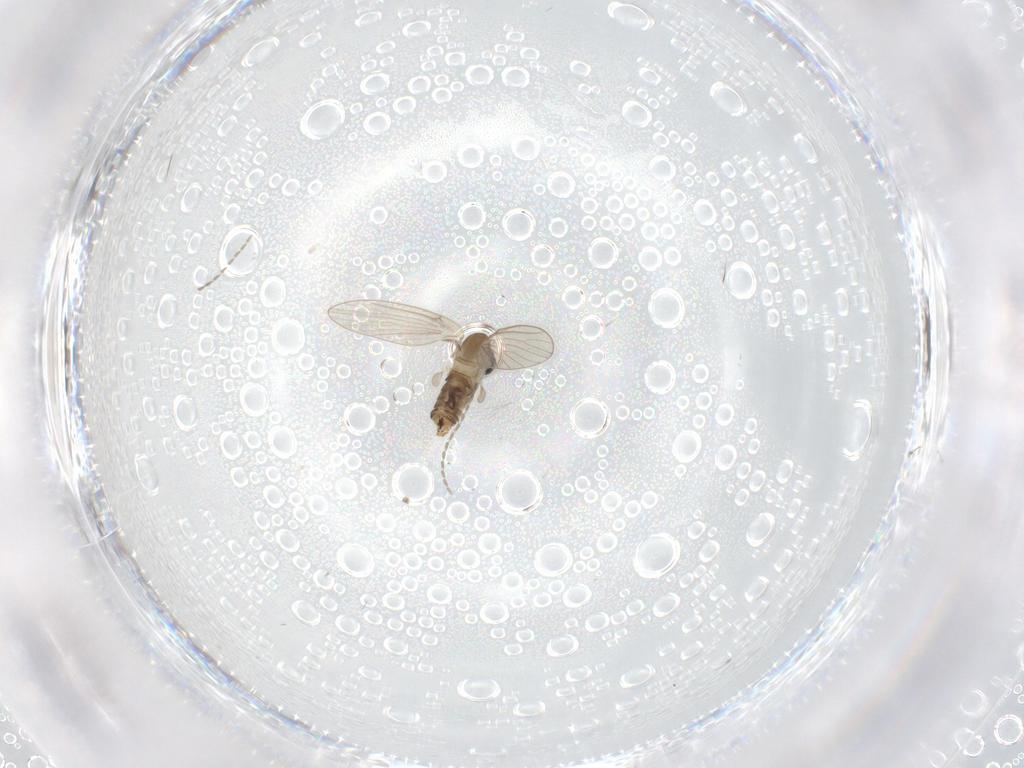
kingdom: Animalia
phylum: Arthropoda
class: Insecta
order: Diptera
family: Psychodidae
